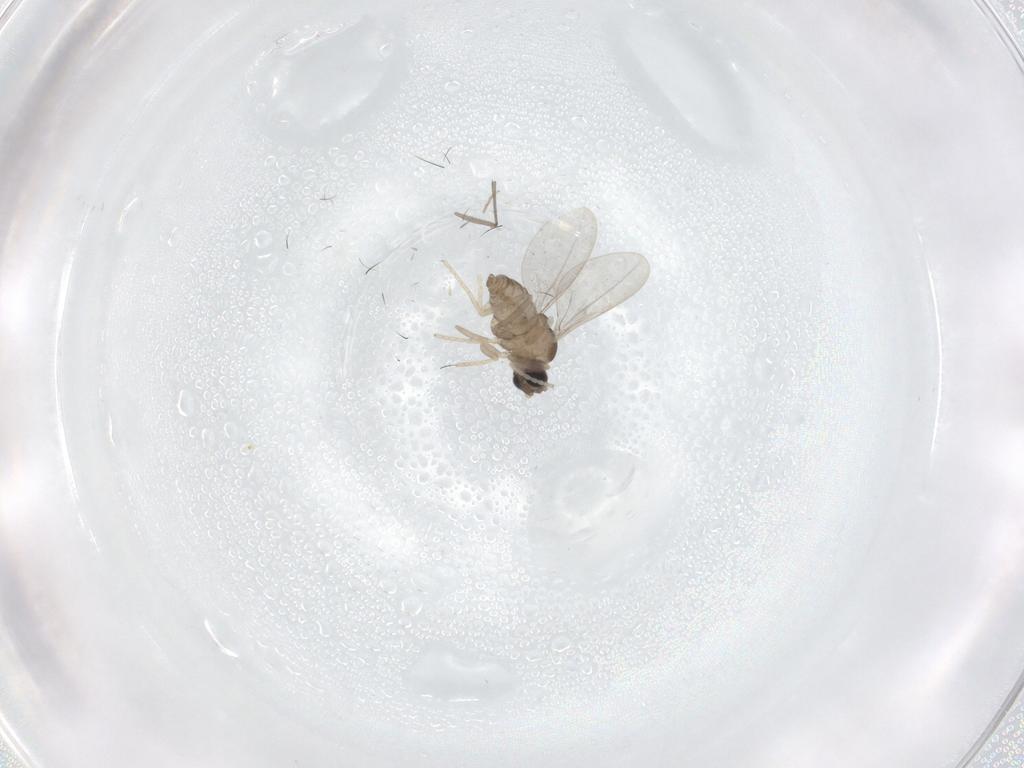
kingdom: Animalia
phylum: Arthropoda
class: Insecta
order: Diptera
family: Cecidomyiidae
